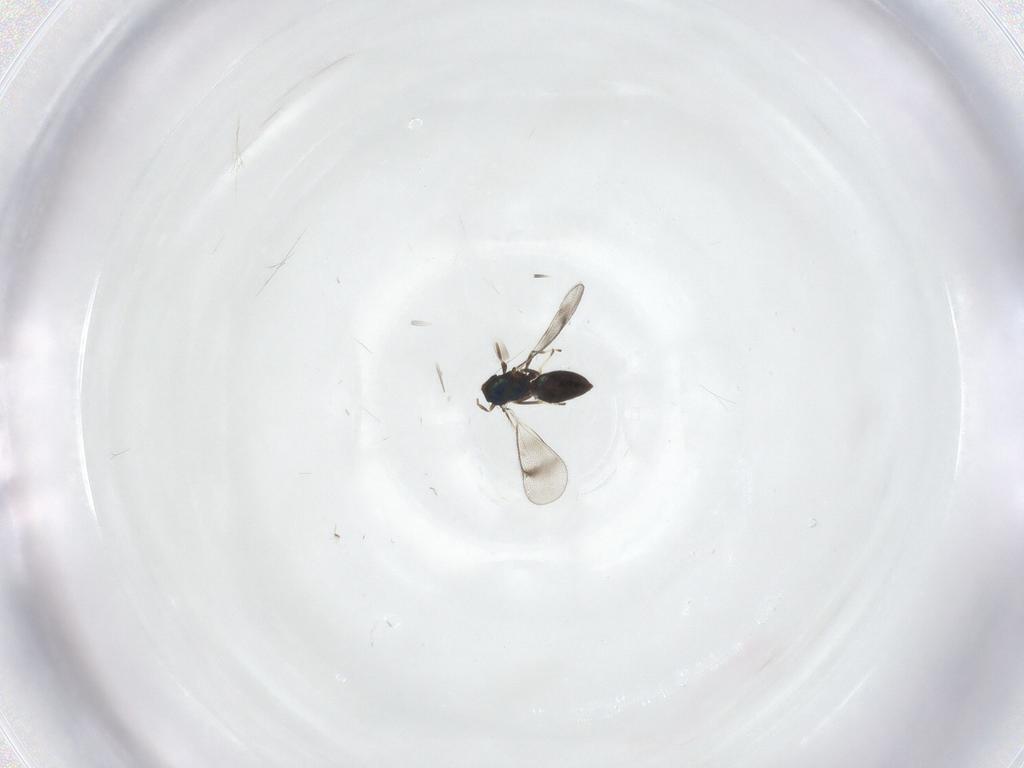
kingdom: Animalia
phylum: Arthropoda
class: Insecta
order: Hymenoptera
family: Eulophidae
